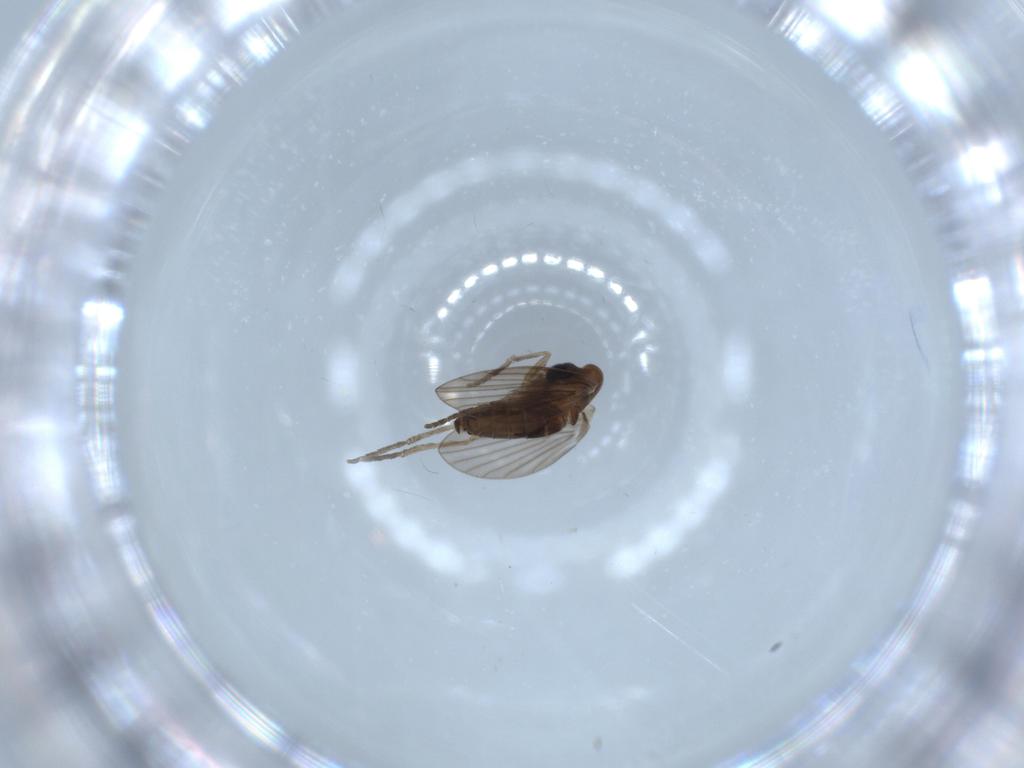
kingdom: Animalia
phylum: Arthropoda
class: Insecta
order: Diptera
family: Psychodidae
